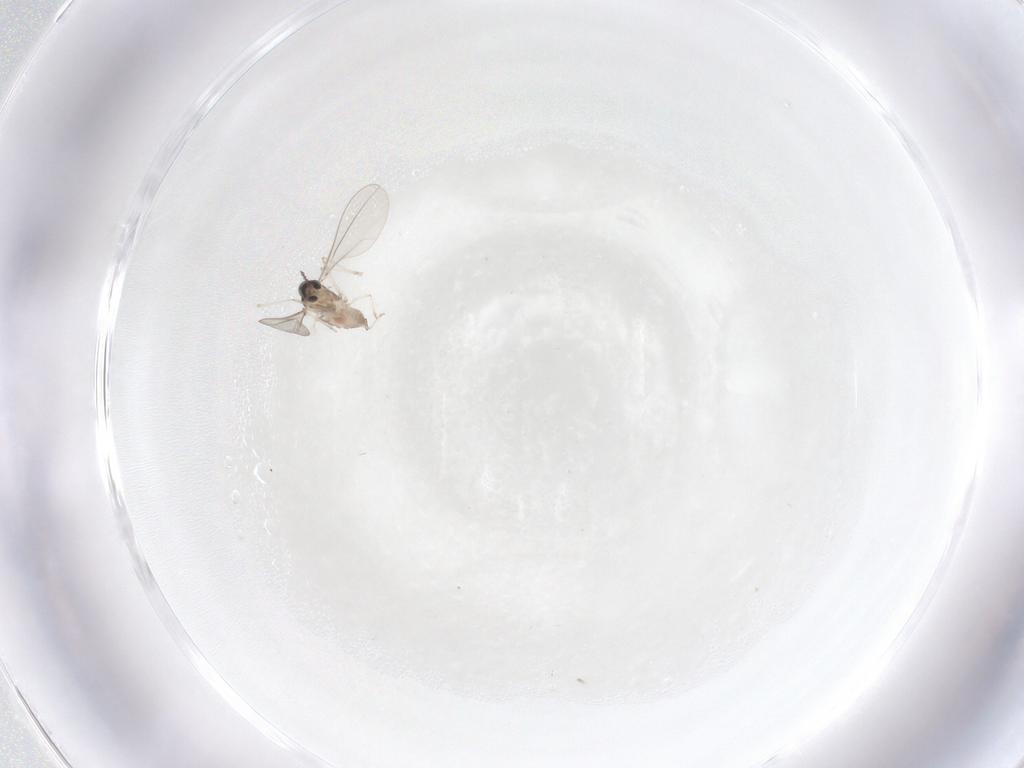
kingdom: Animalia
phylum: Arthropoda
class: Insecta
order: Diptera
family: Cecidomyiidae
